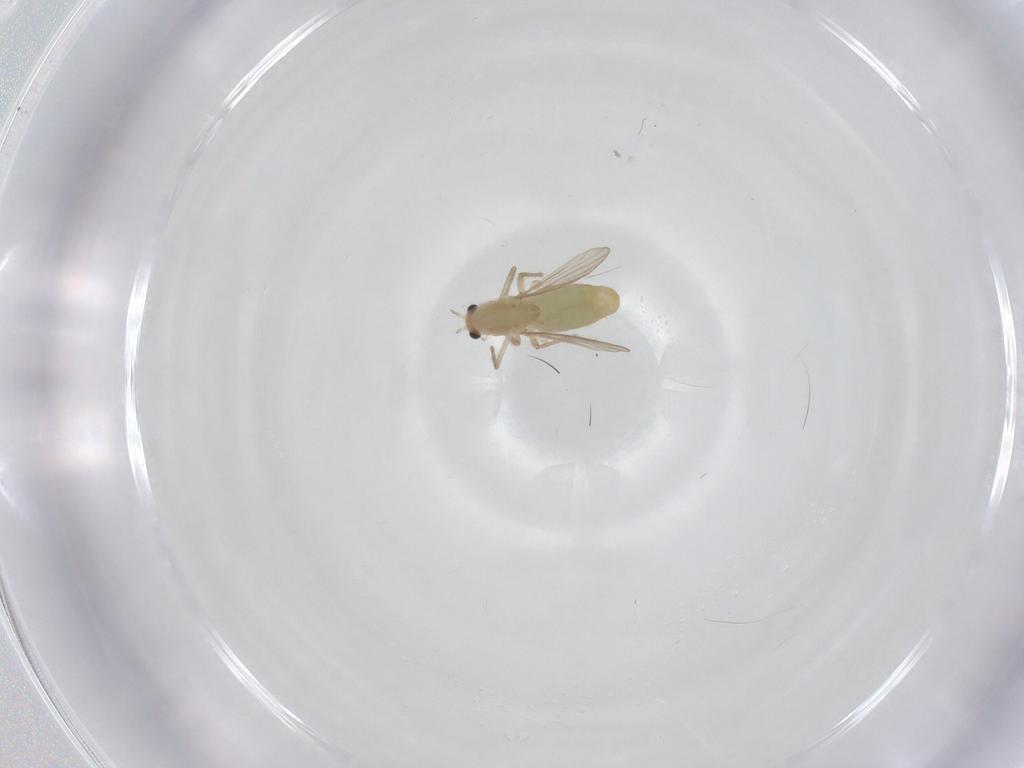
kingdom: Animalia
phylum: Arthropoda
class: Insecta
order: Diptera
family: Chironomidae
